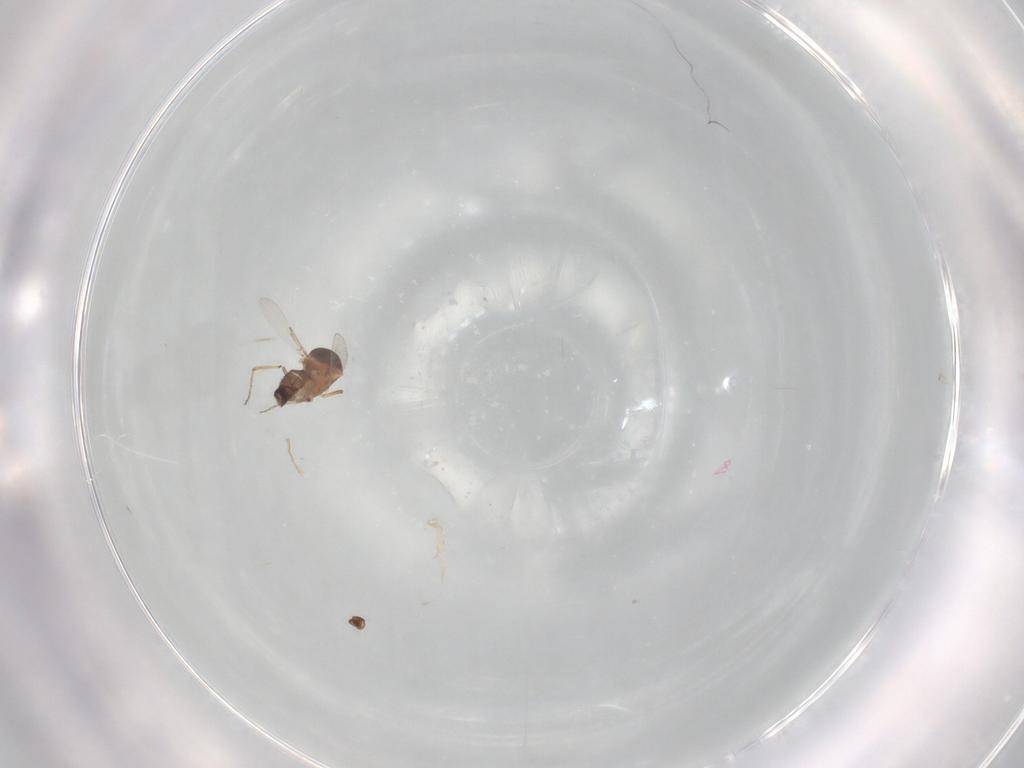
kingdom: Animalia
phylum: Arthropoda
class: Insecta
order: Diptera
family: Ceratopogonidae
